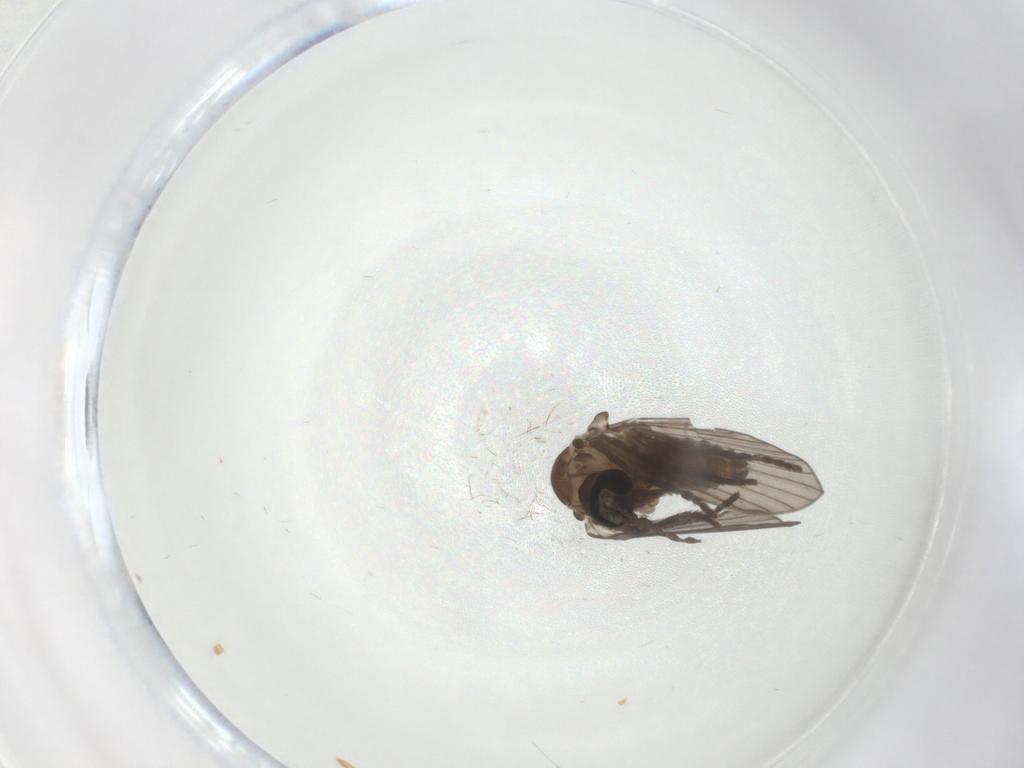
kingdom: Animalia
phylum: Arthropoda
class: Insecta
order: Diptera
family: Psychodidae
